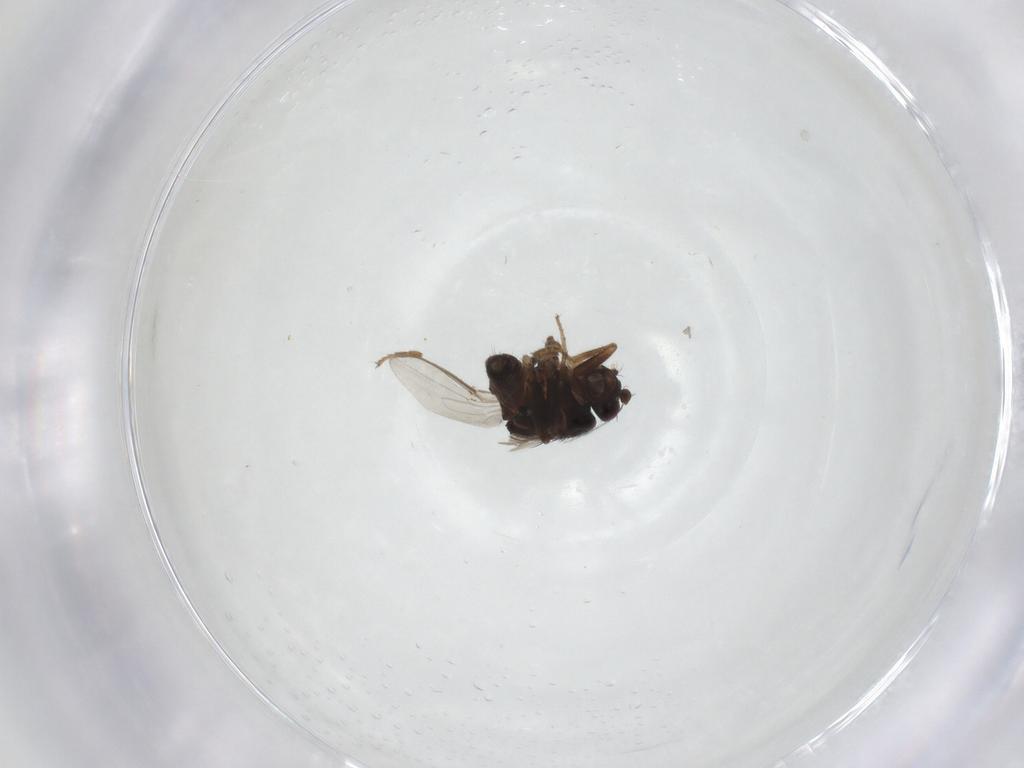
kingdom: Animalia
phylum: Arthropoda
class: Insecta
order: Diptera
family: Sphaeroceridae
